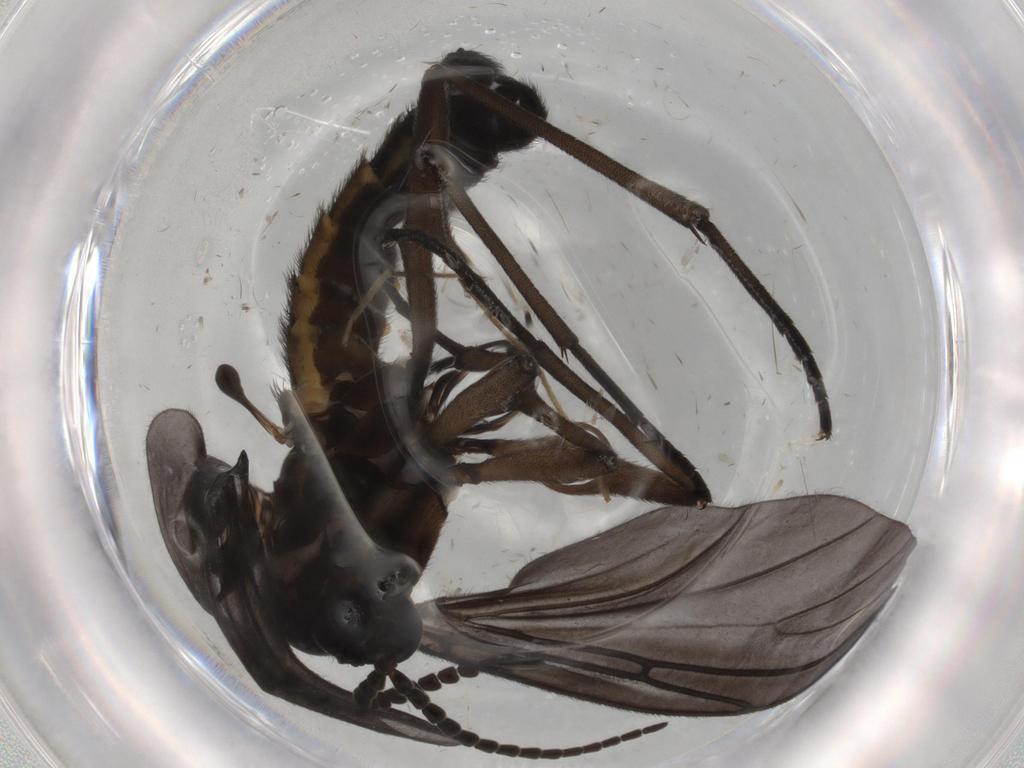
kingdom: Animalia
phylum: Arthropoda
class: Insecta
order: Diptera
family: Sciaridae
